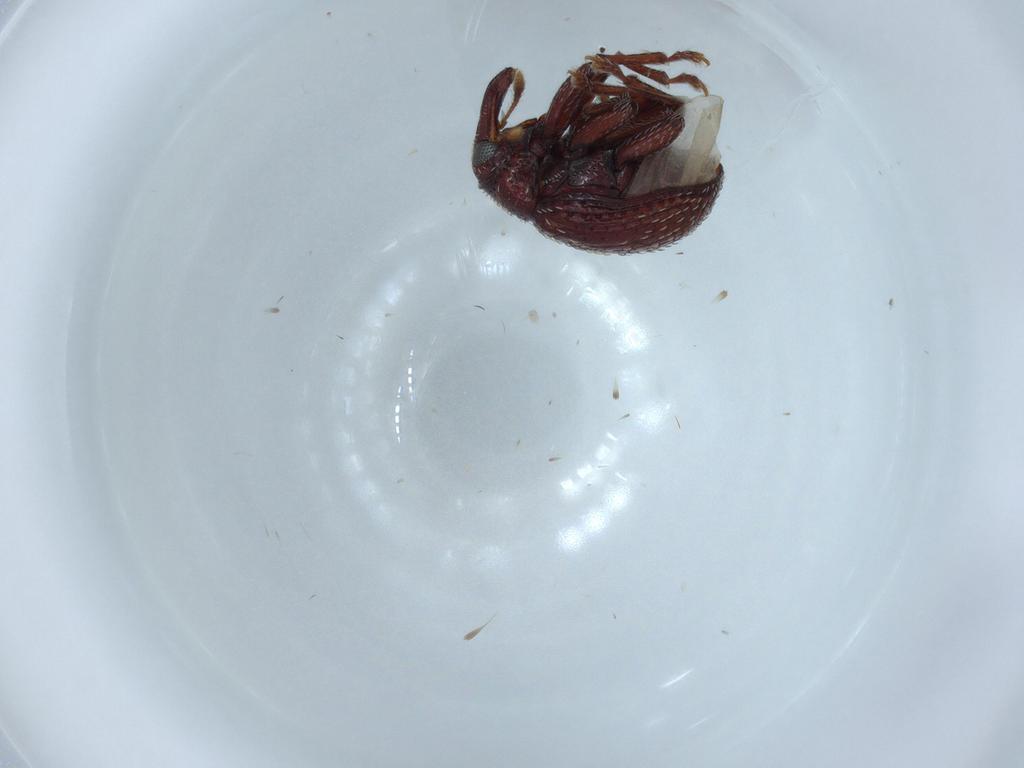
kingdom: Animalia
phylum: Arthropoda
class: Insecta
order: Coleoptera
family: Curculionidae
